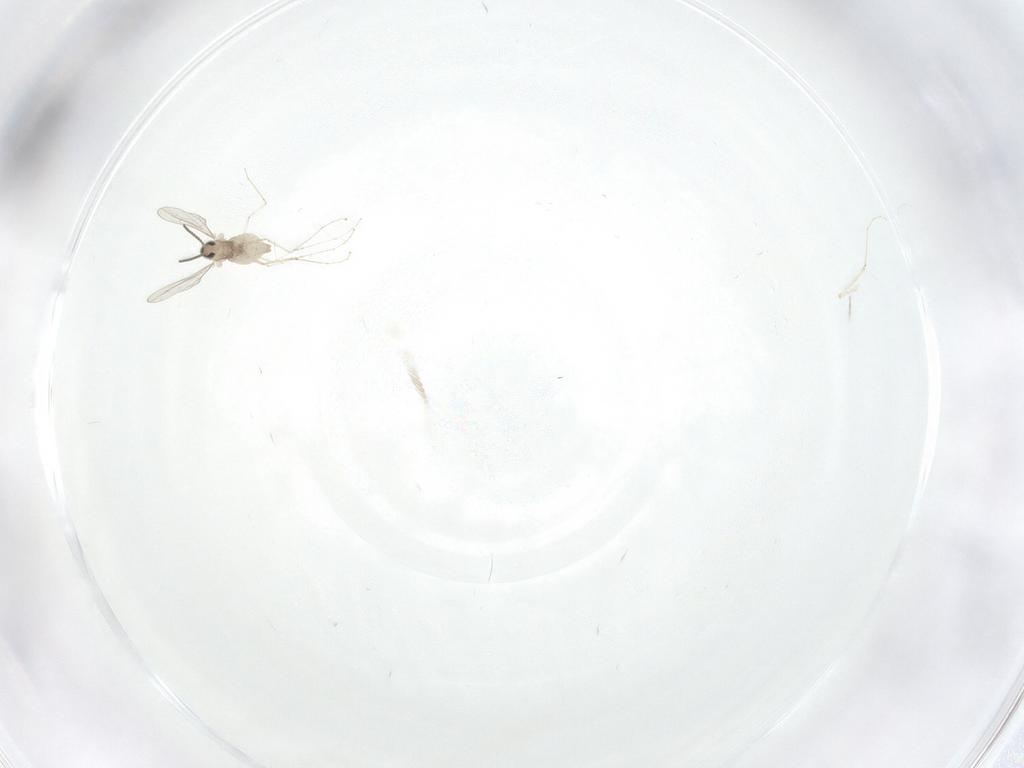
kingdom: Animalia
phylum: Arthropoda
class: Insecta
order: Diptera
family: Cecidomyiidae
